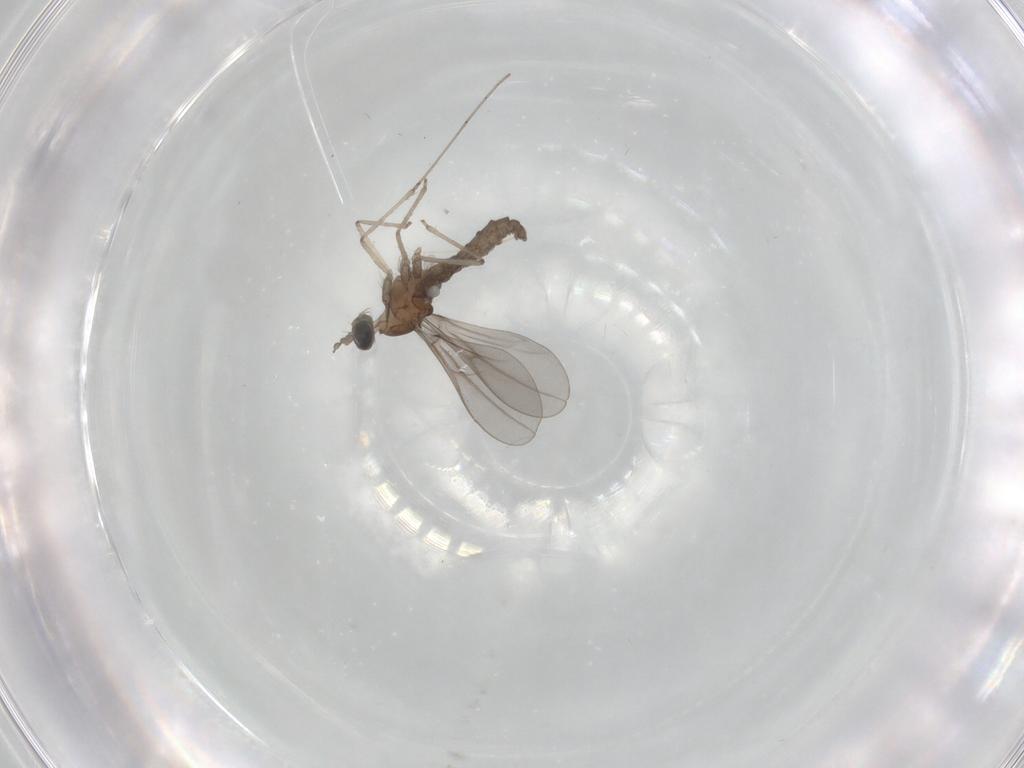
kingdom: Animalia
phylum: Arthropoda
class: Insecta
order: Diptera
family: Cecidomyiidae
